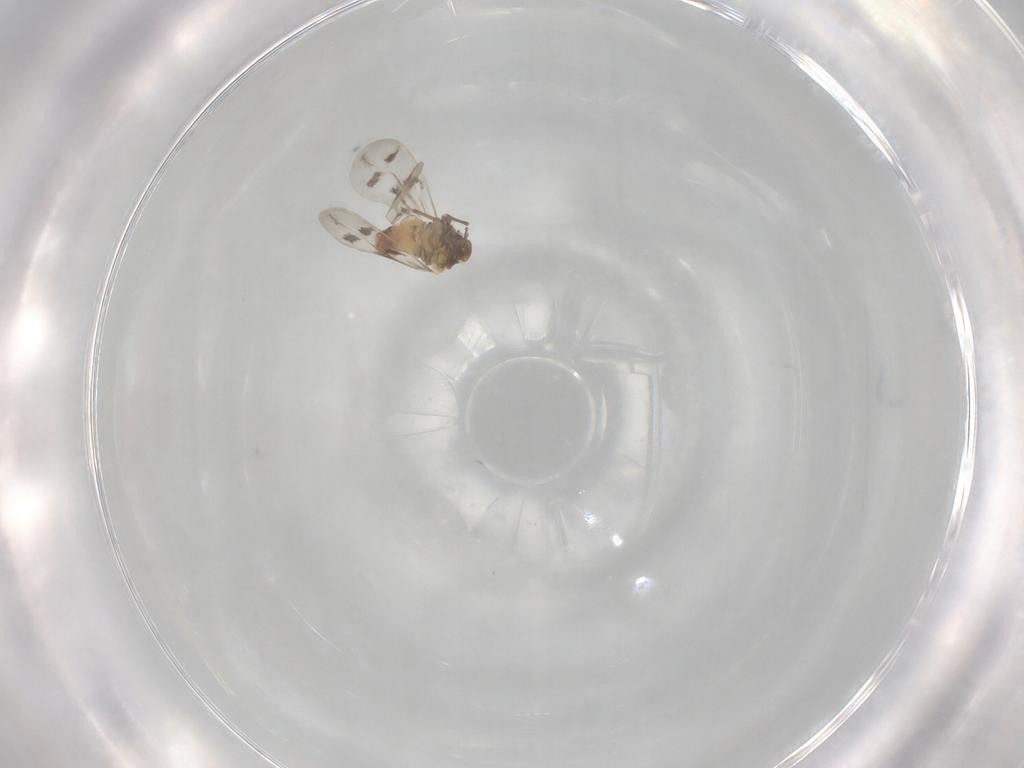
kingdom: Animalia
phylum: Arthropoda
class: Insecta
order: Hemiptera
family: Aleyrodidae
